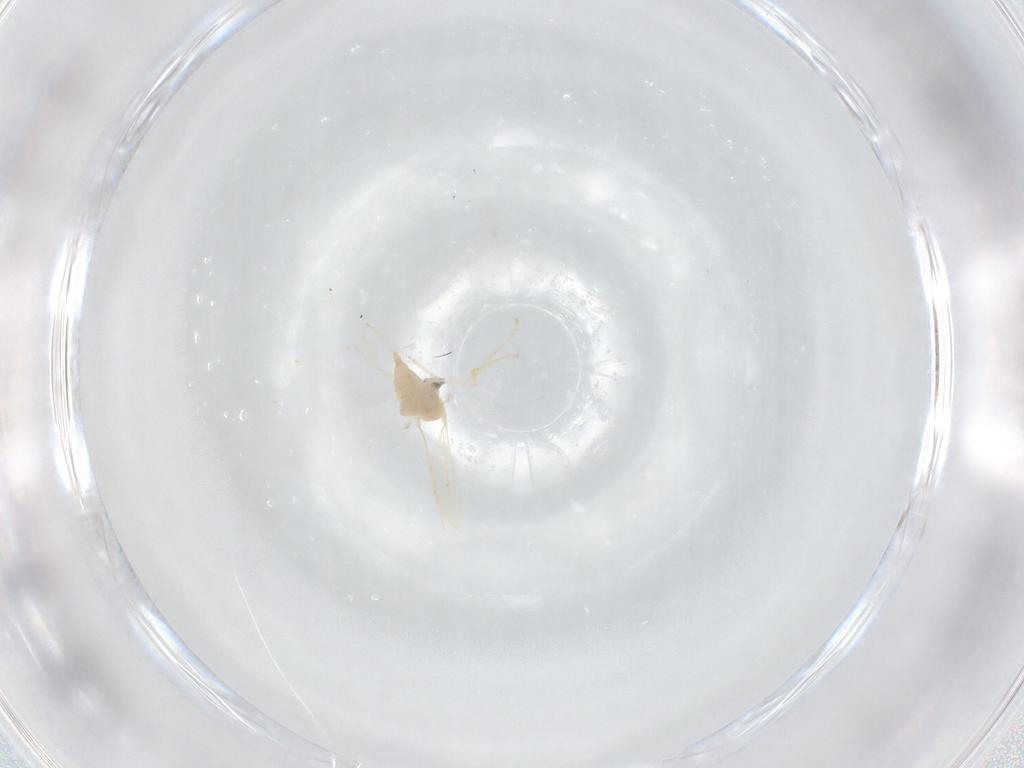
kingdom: Animalia
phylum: Arthropoda
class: Insecta
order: Diptera
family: Cecidomyiidae
